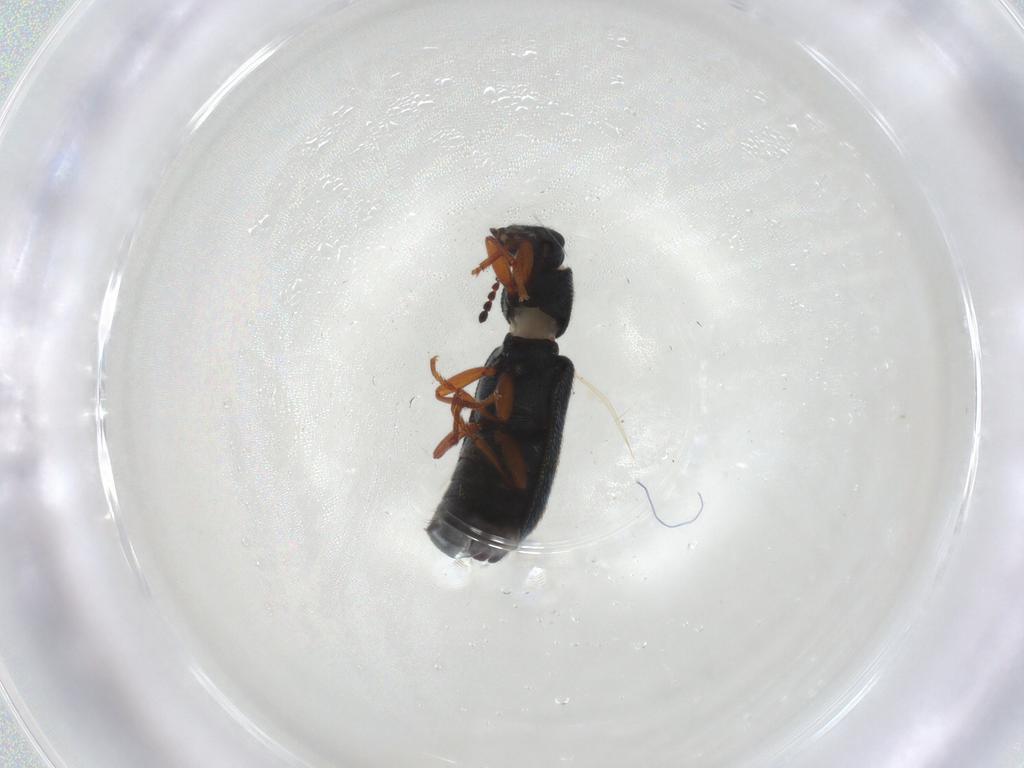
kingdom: Animalia
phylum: Arthropoda
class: Insecta
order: Coleoptera
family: Melyridae
